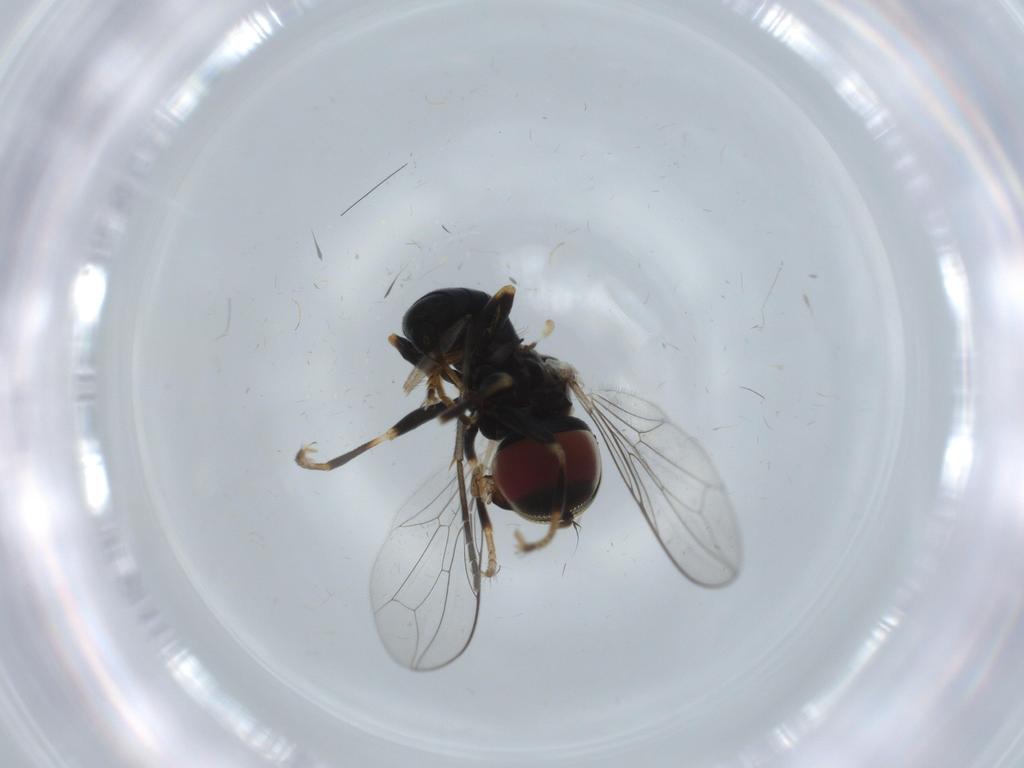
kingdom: Animalia
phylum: Arthropoda
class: Insecta
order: Diptera
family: Pipunculidae
